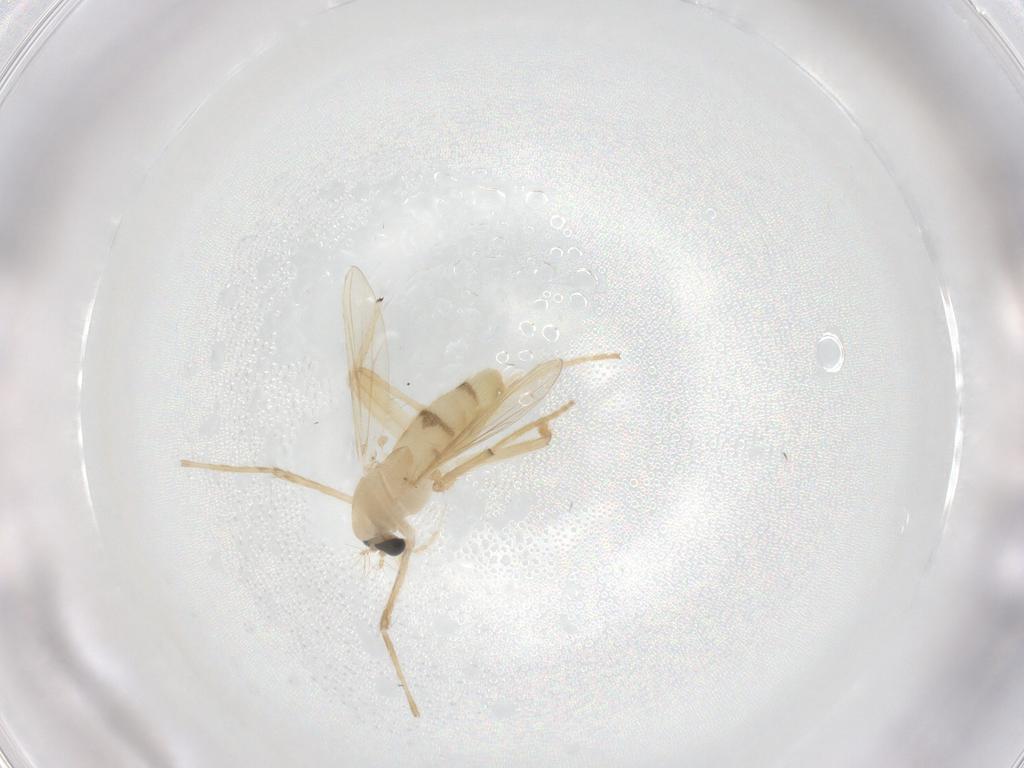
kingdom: Animalia
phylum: Arthropoda
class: Insecta
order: Diptera
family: Chironomidae
